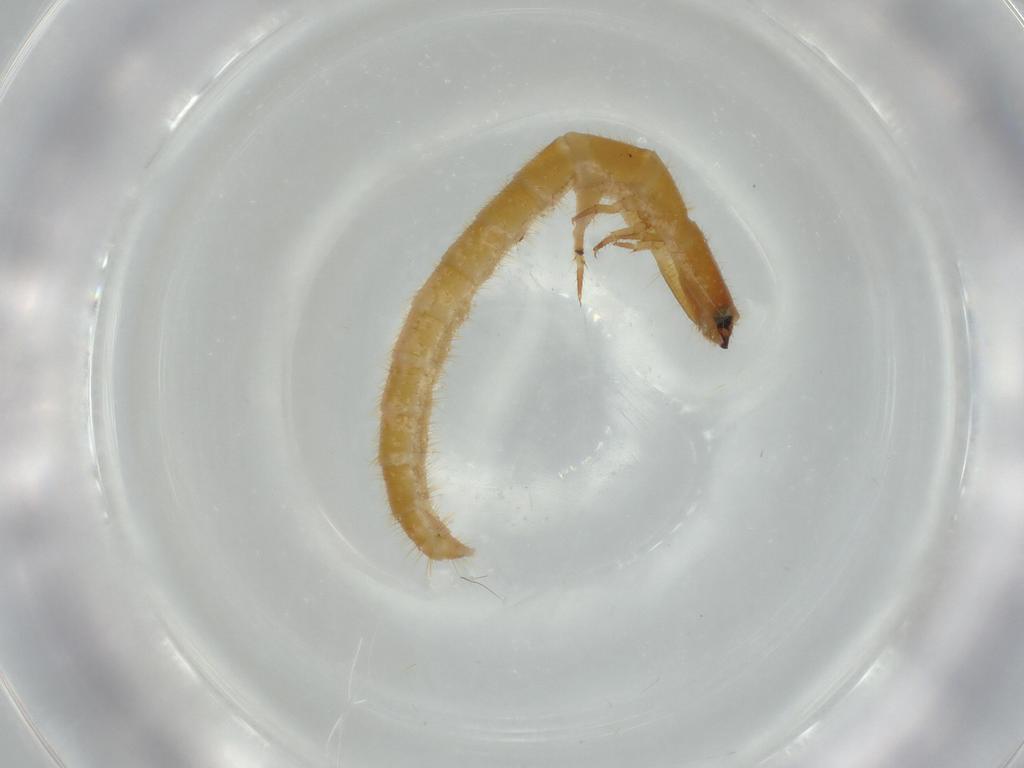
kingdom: Animalia
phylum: Arthropoda
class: Insecta
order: Coleoptera
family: Phengodidae
